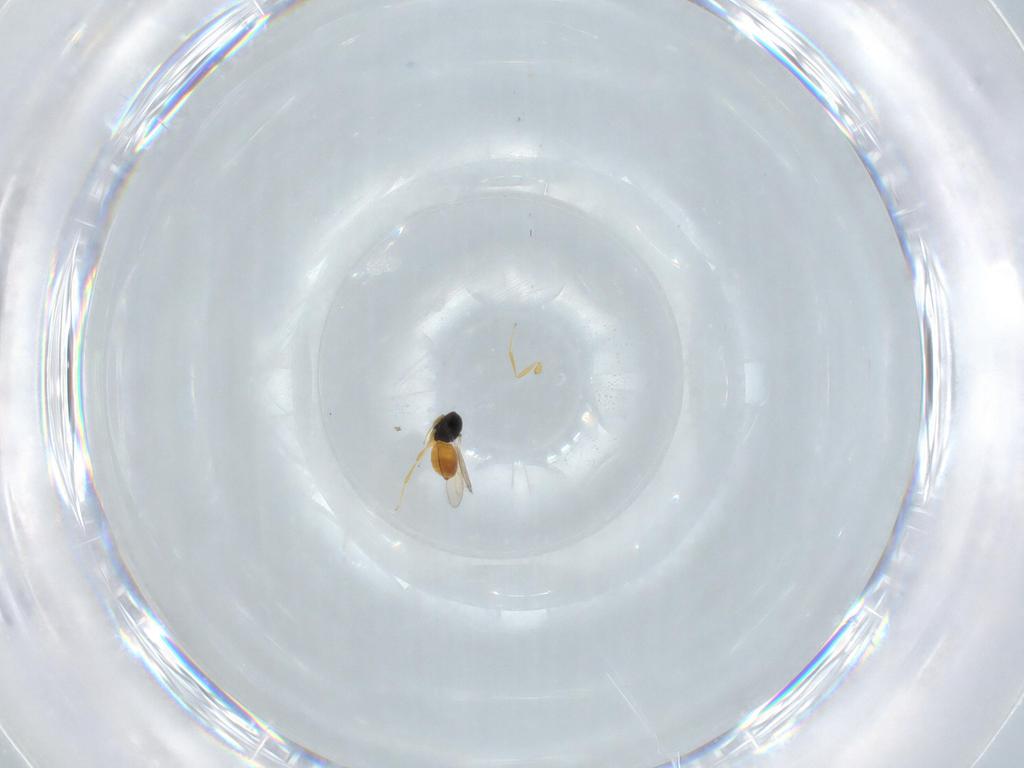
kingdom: Animalia
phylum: Arthropoda
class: Insecta
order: Hymenoptera
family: Scelionidae
